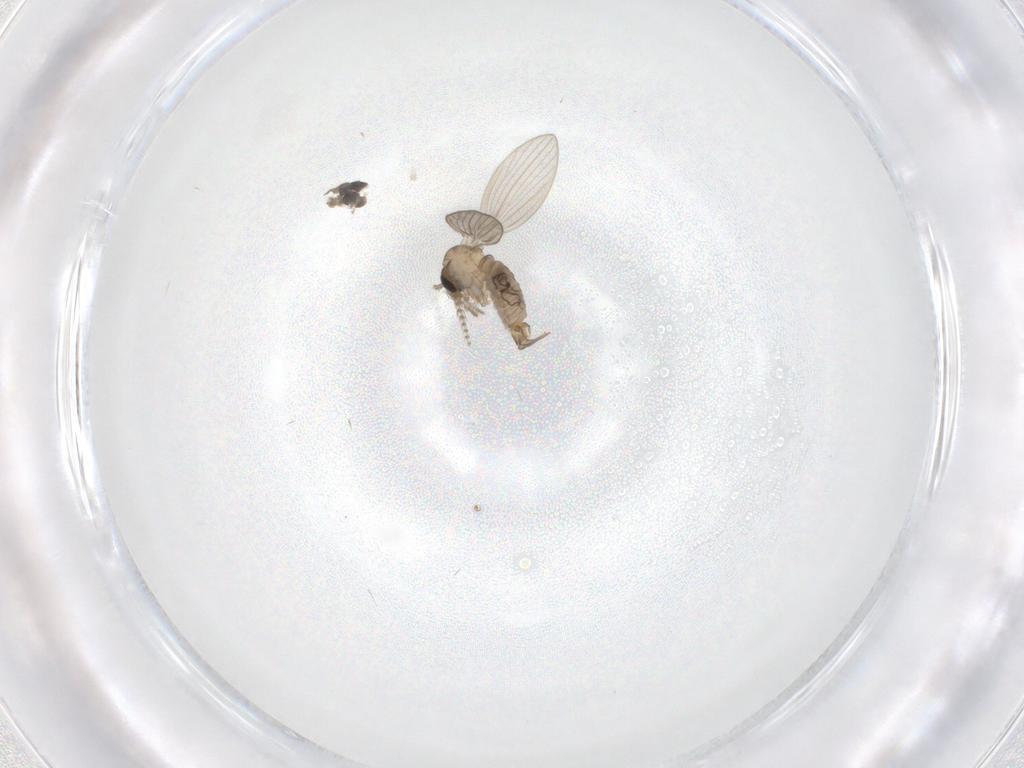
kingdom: Animalia
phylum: Arthropoda
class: Insecta
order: Diptera
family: Psychodidae
